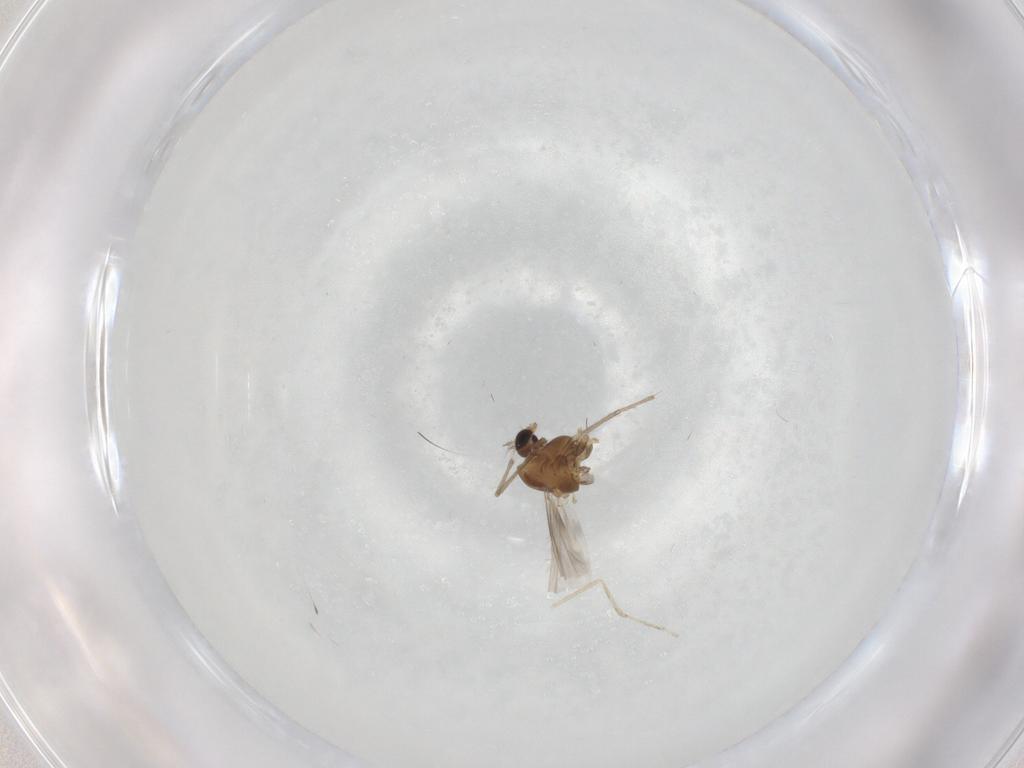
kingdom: Animalia
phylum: Arthropoda
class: Insecta
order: Diptera
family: Chironomidae
